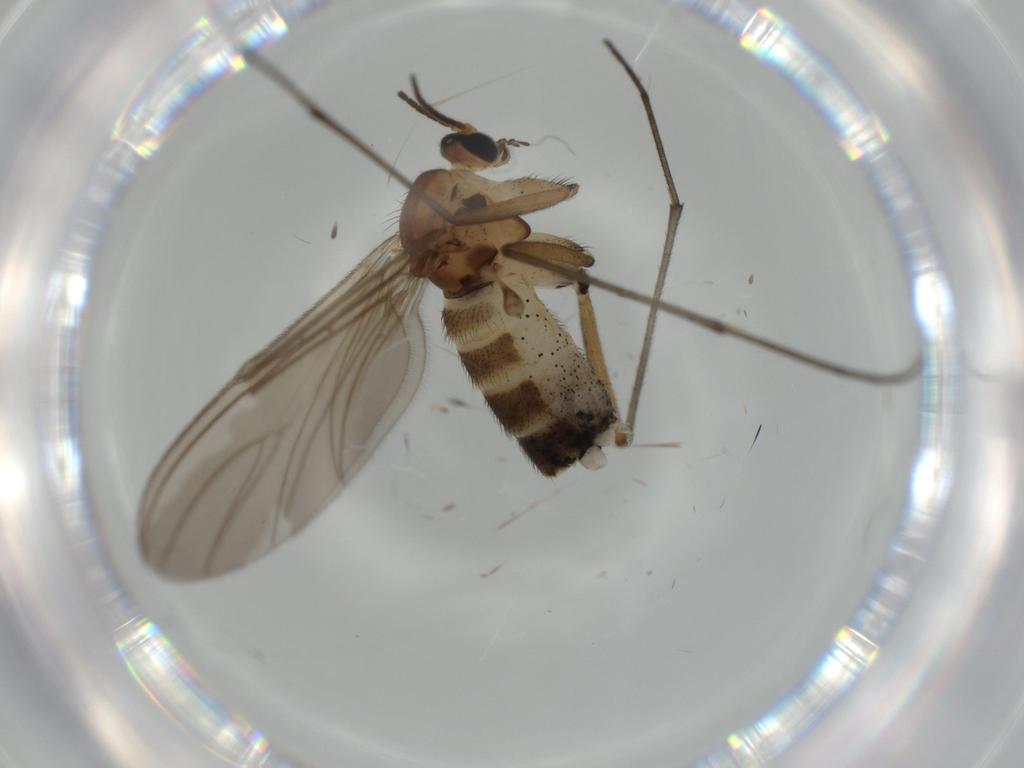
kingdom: Animalia
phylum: Arthropoda
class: Insecta
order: Diptera
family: Sciaridae
